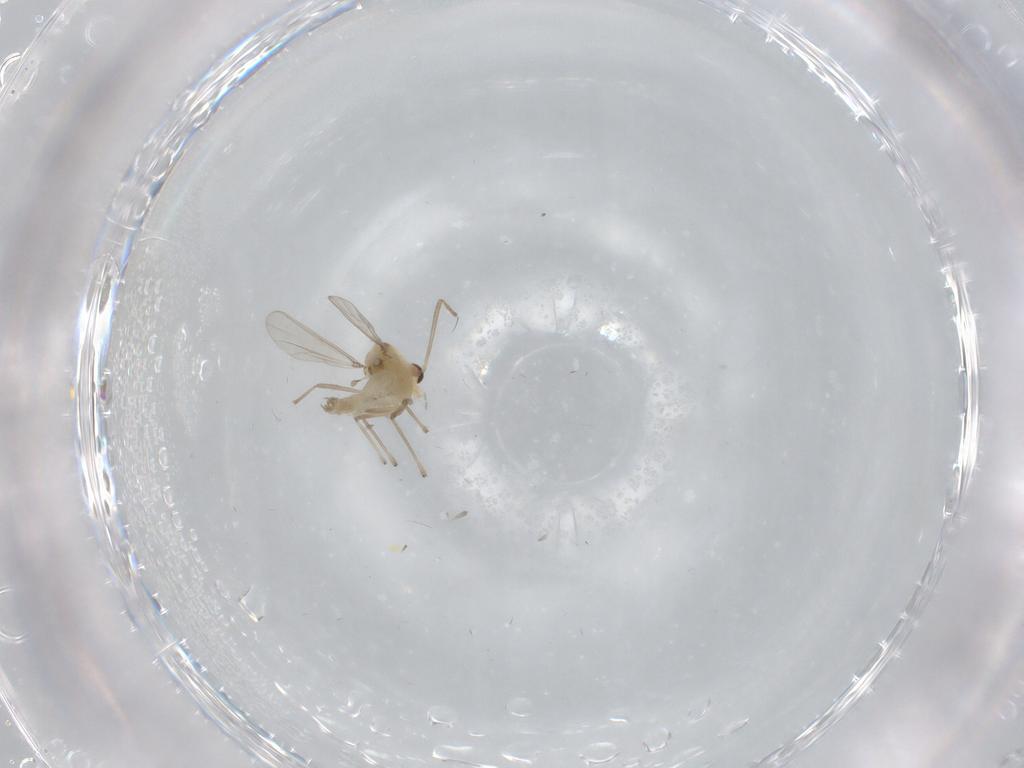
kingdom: Animalia
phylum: Arthropoda
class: Insecta
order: Diptera
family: Chironomidae
